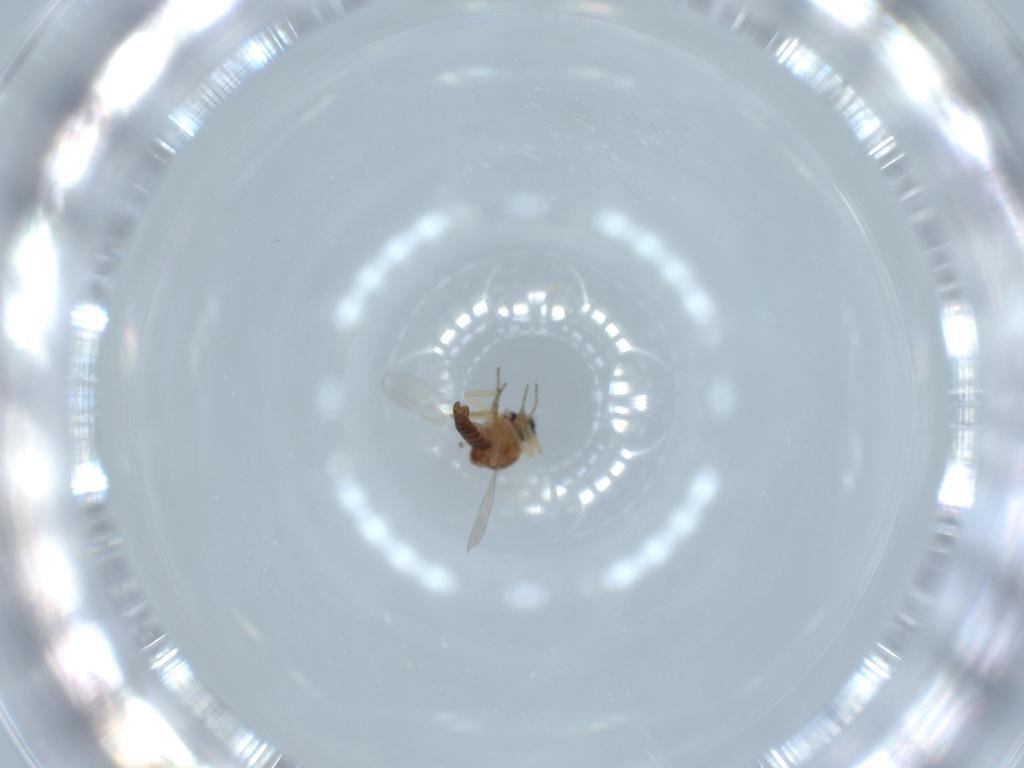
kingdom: Animalia
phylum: Arthropoda
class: Insecta
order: Diptera
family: Ceratopogonidae
